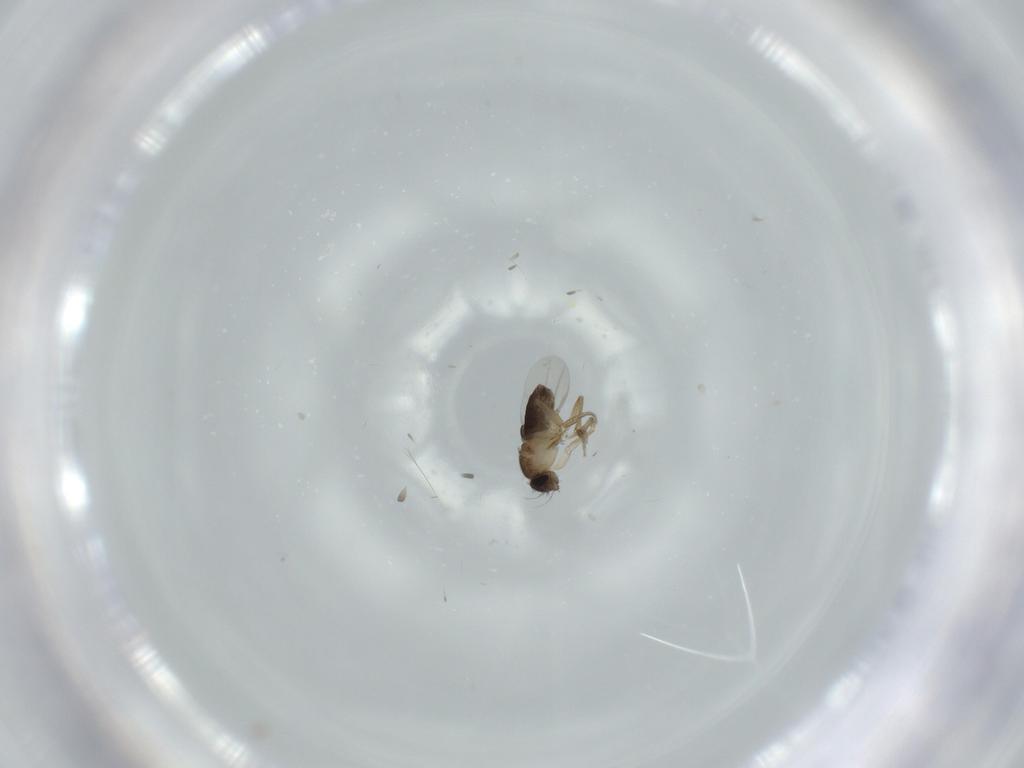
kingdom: Animalia
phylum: Arthropoda
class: Insecta
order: Diptera
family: Phoridae
